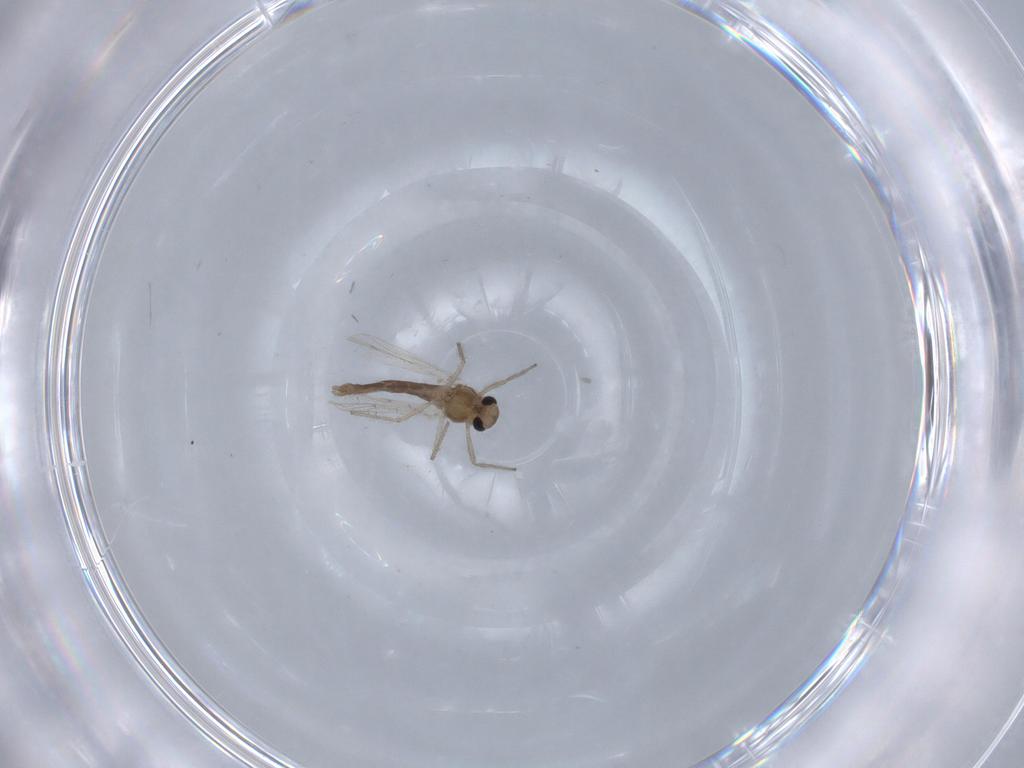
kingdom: Animalia
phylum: Arthropoda
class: Insecta
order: Diptera
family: Chironomidae
